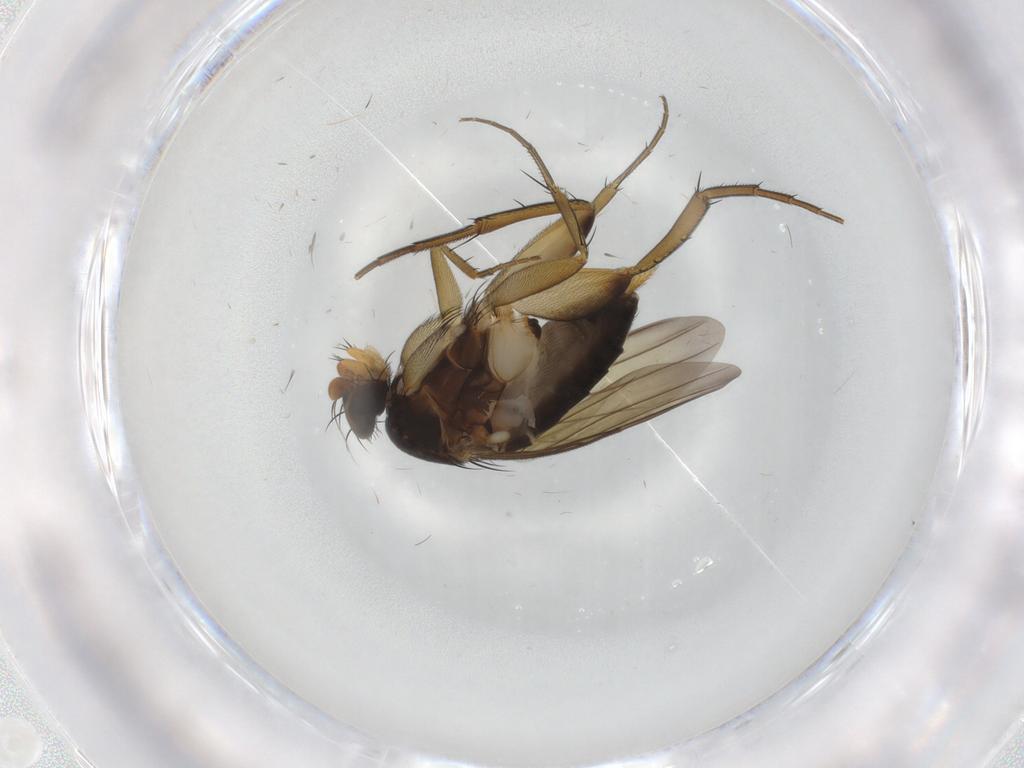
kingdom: Animalia
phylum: Arthropoda
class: Insecta
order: Diptera
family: Phoridae
